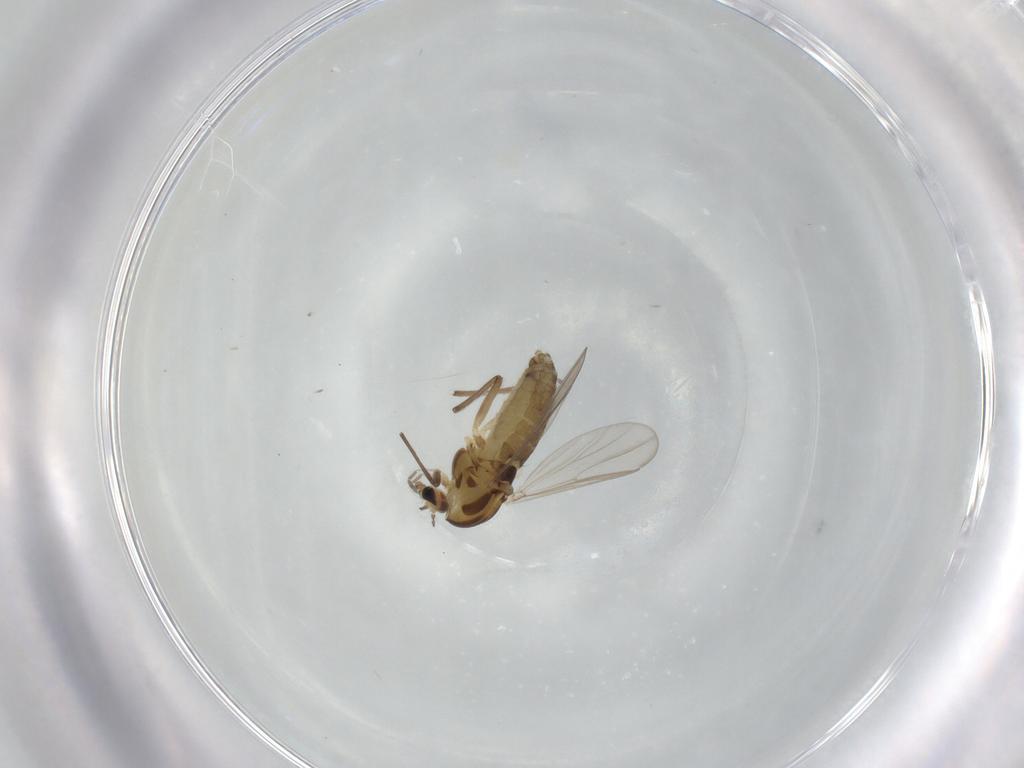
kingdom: Animalia
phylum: Arthropoda
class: Insecta
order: Diptera
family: Chironomidae
